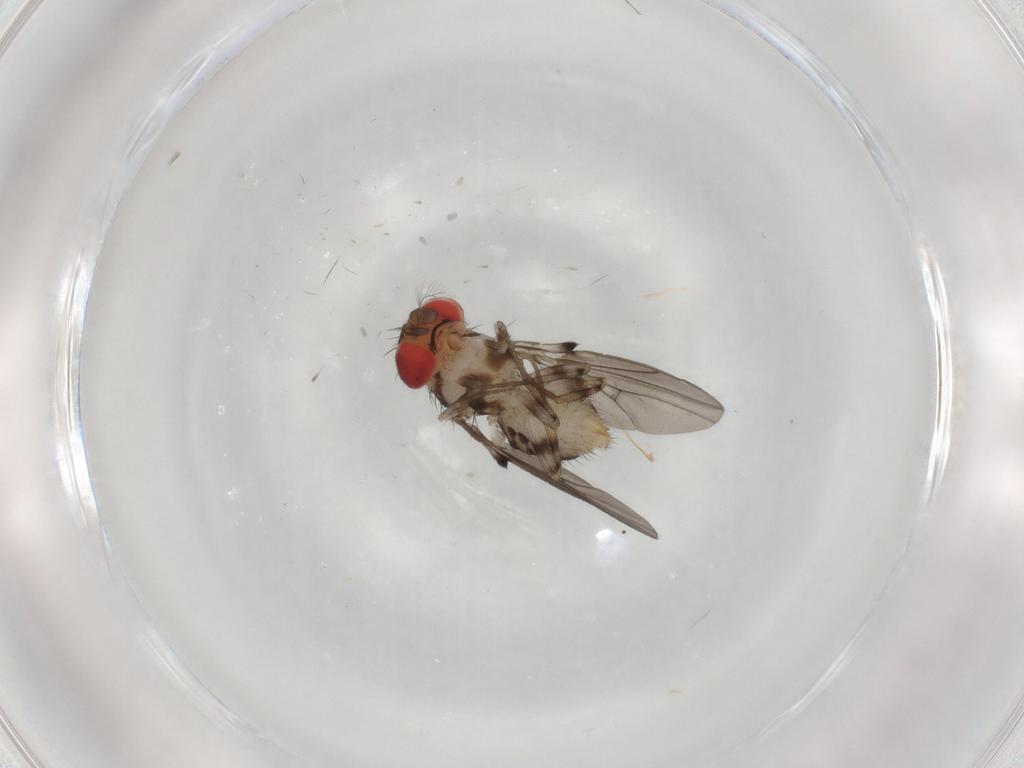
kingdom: Animalia
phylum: Arthropoda
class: Insecta
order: Diptera
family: Drosophilidae
